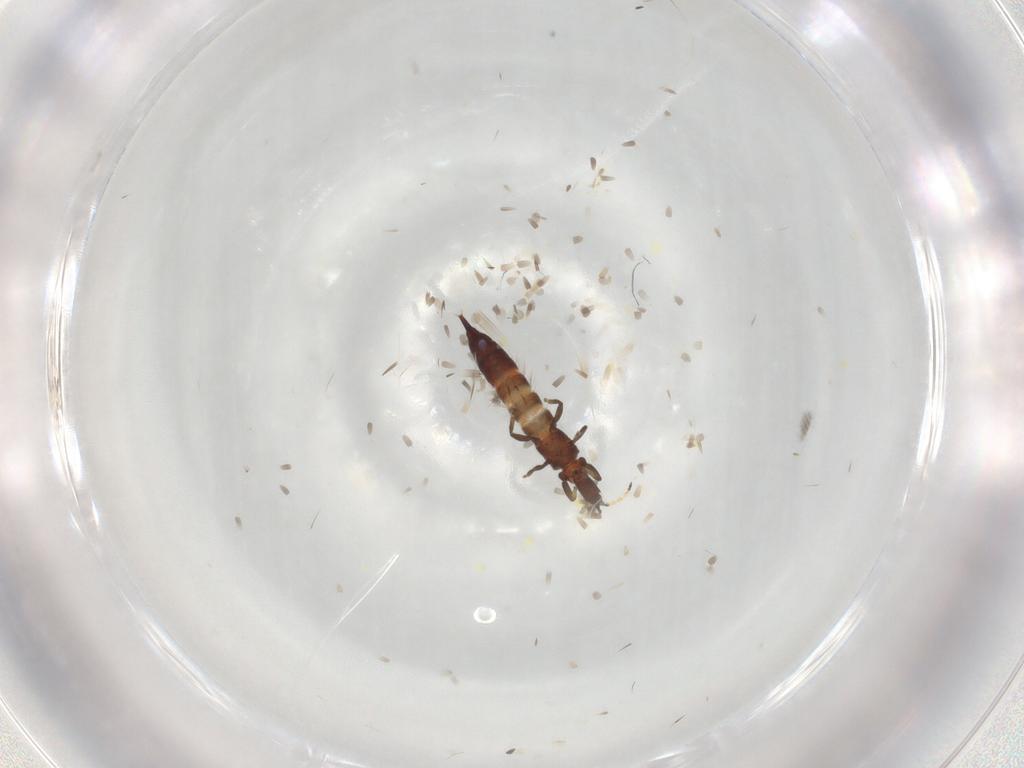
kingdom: Animalia
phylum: Arthropoda
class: Insecta
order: Thysanoptera
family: Phlaeothripidae
